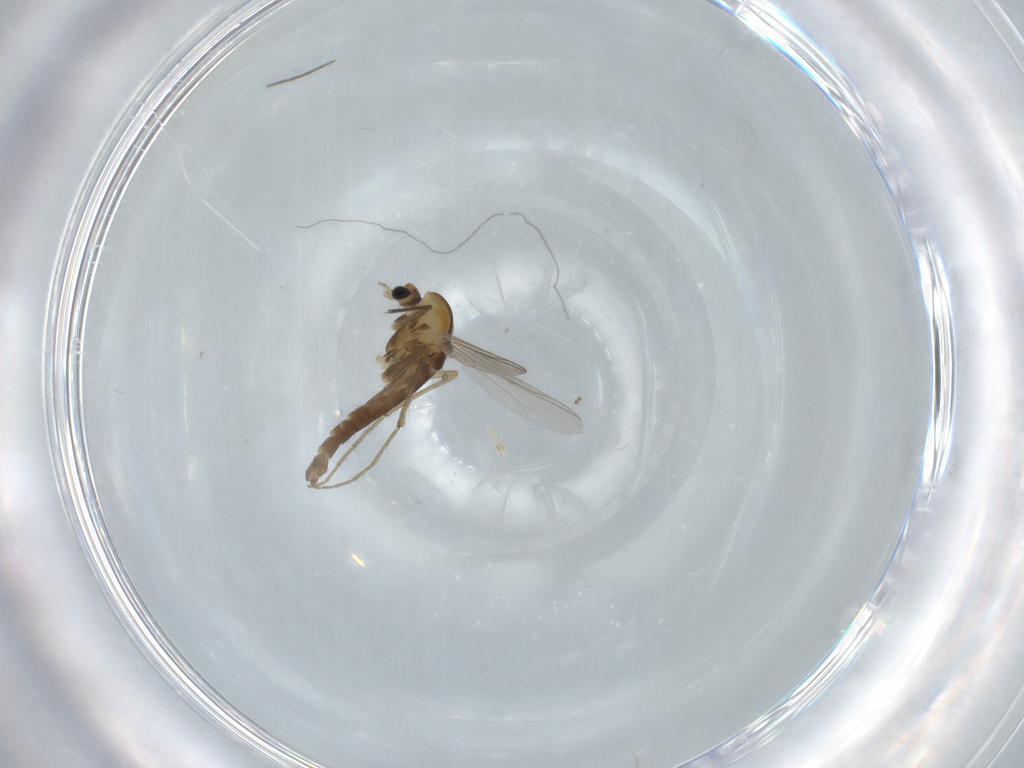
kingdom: Animalia
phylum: Arthropoda
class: Insecta
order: Diptera
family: Chironomidae
